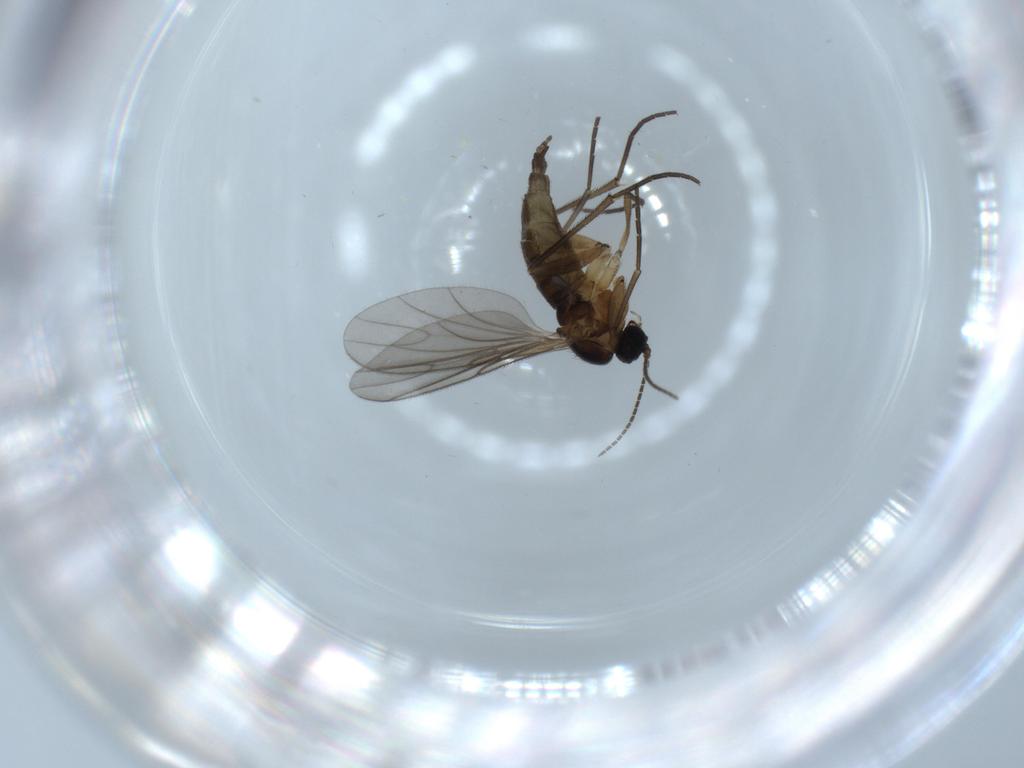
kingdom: Animalia
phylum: Arthropoda
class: Insecta
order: Diptera
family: Sciaridae
